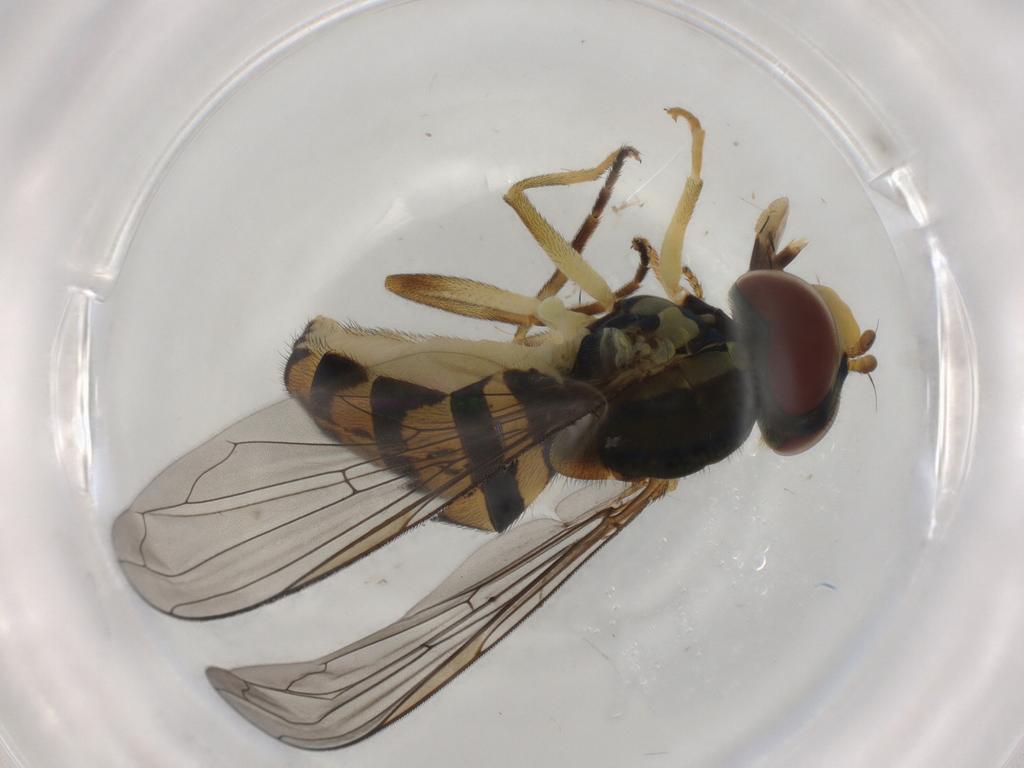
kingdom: Animalia
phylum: Arthropoda
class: Insecta
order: Diptera
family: Syrphidae
